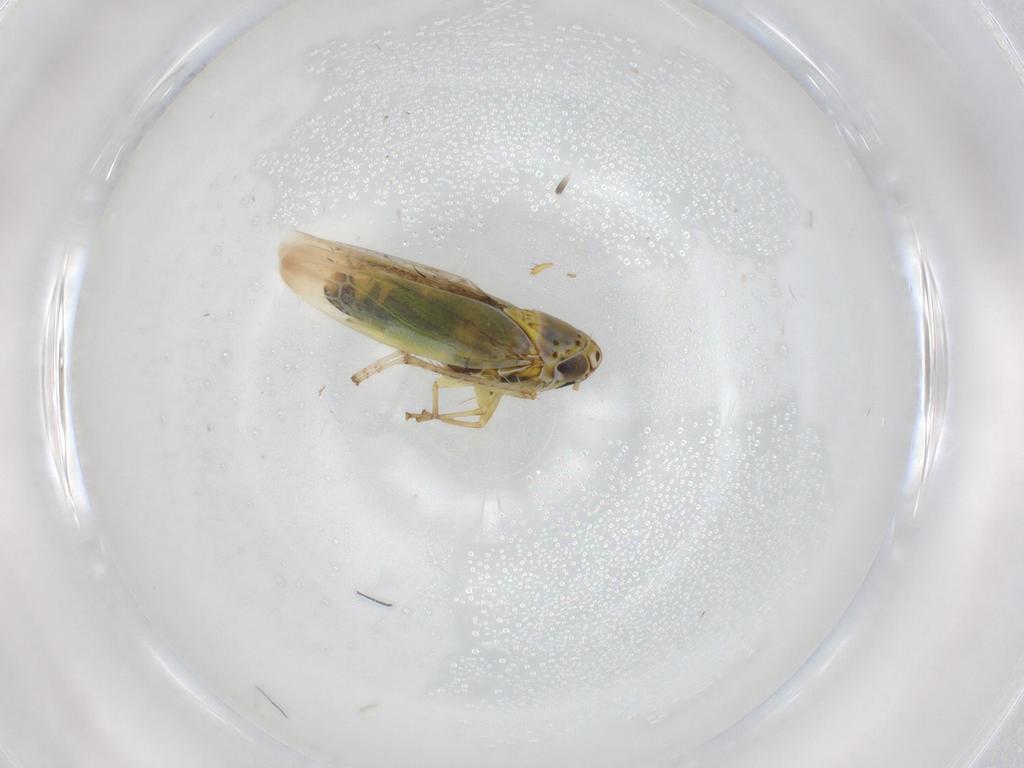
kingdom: Animalia
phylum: Arthropoda
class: Insecta
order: Hemiptera
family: Cicadellidae
